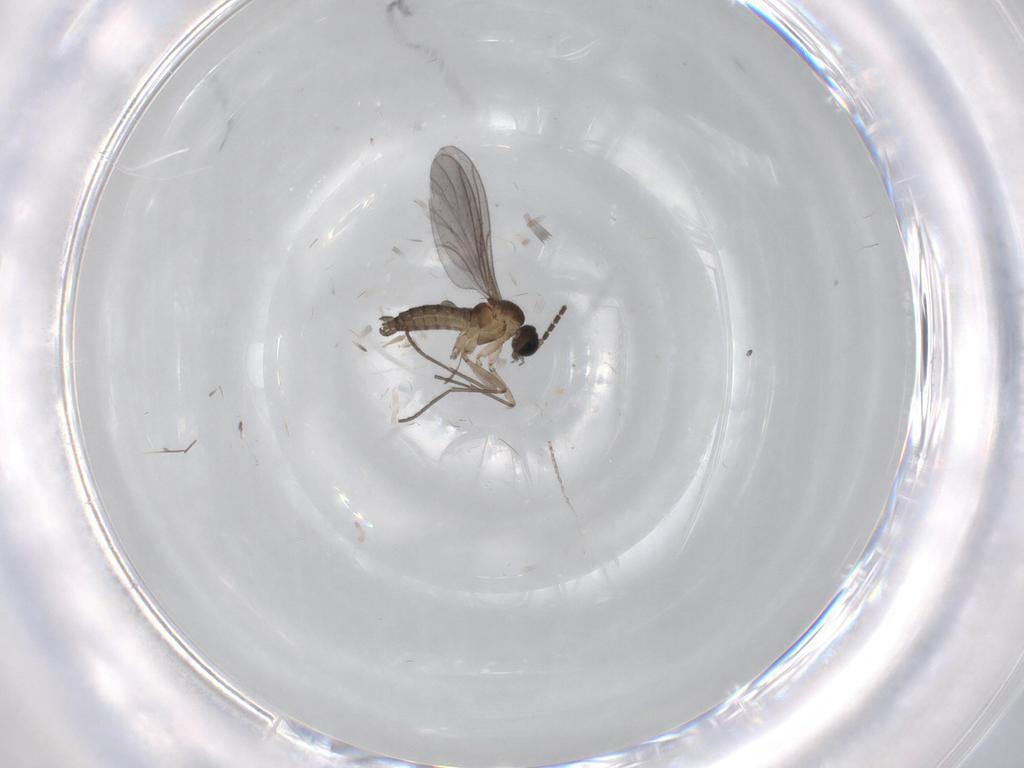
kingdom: Animalia
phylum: Arthropoda
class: Insecta
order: Diptera
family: Sciaridae
